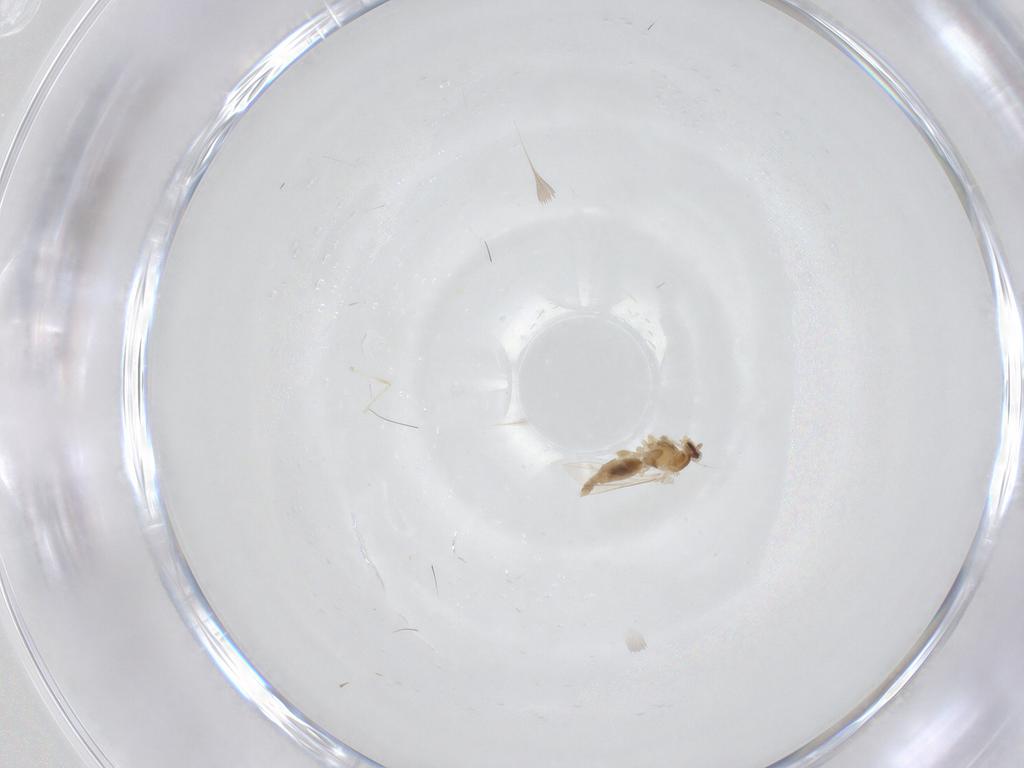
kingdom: Animalia
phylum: Arthropoda
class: Insecta
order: Diptera
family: Cecidomyiidae
